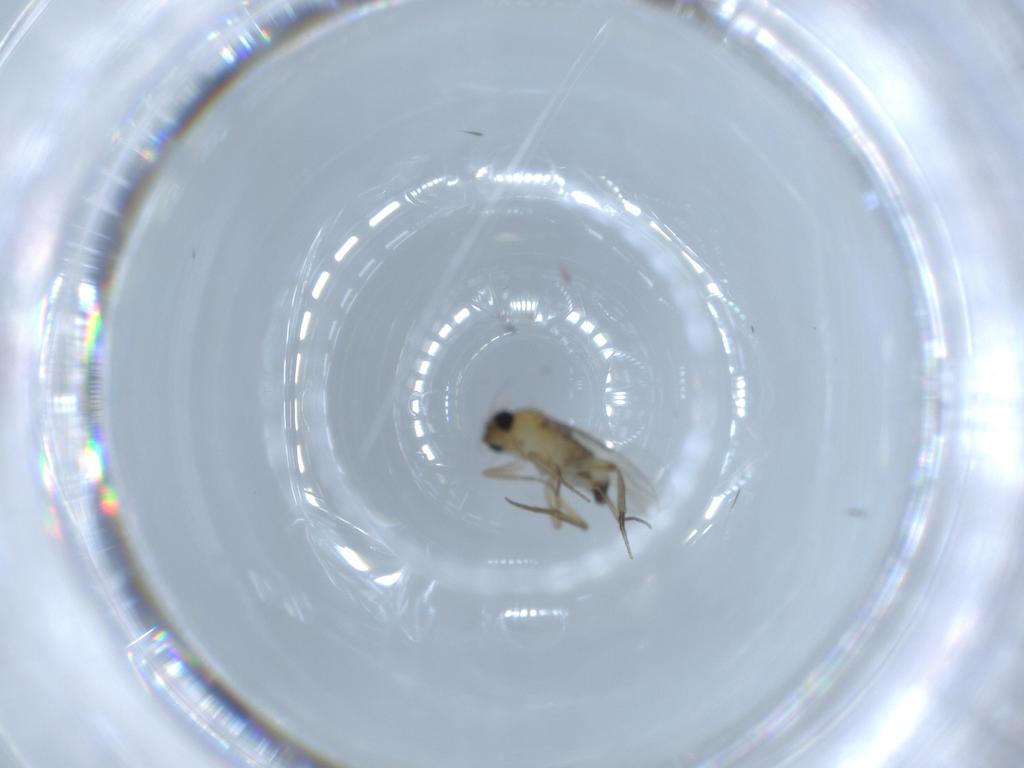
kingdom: Animalia
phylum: Arthropoda
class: Insecta
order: Diptera
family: Phoridae
